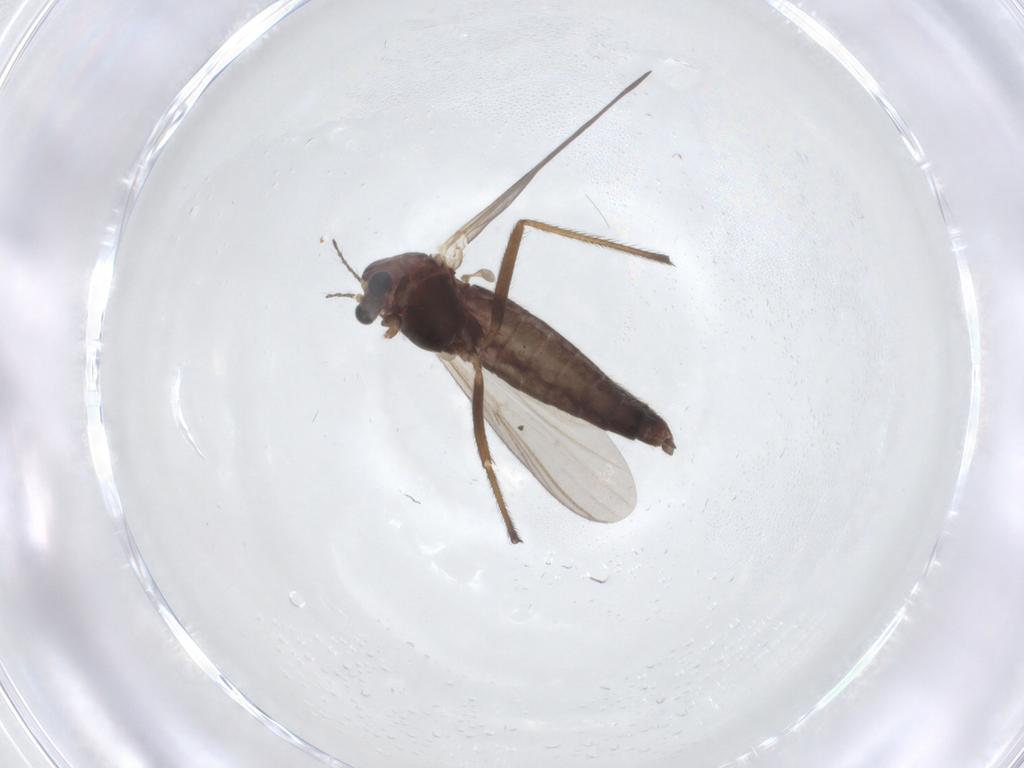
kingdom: Animalia
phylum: Arthropoda
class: Insecta
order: Diptera
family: Chironomidae
